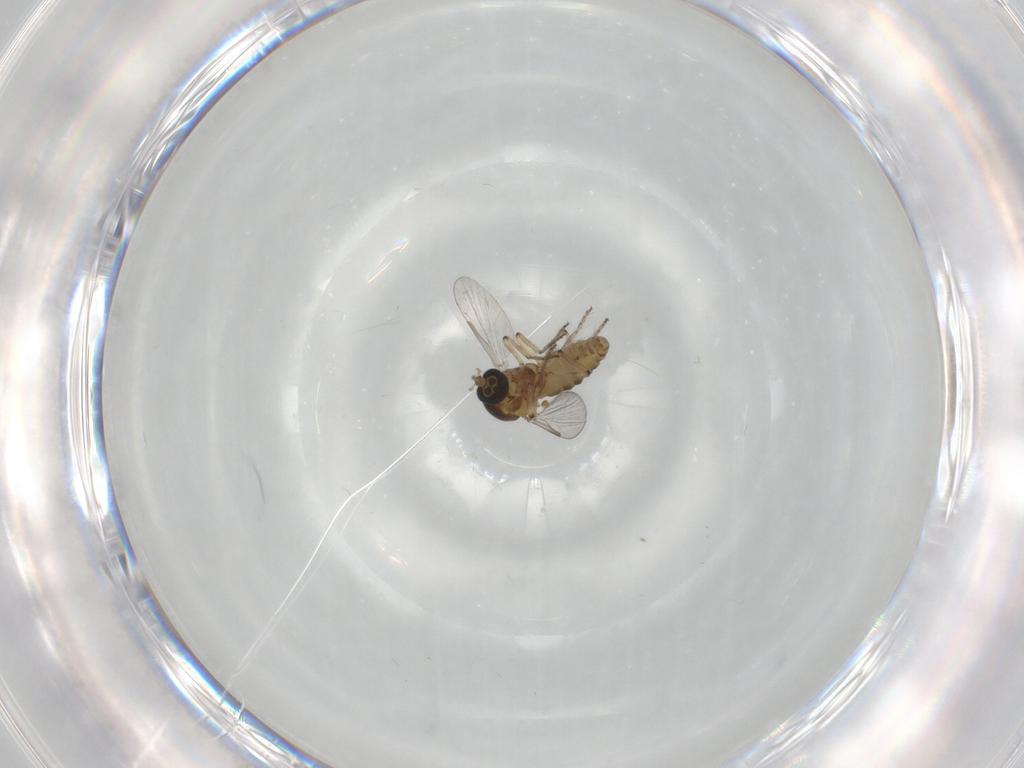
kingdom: Animalia
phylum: Arthropoda
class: Insecta
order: Diptera
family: Ceratopogonidae
